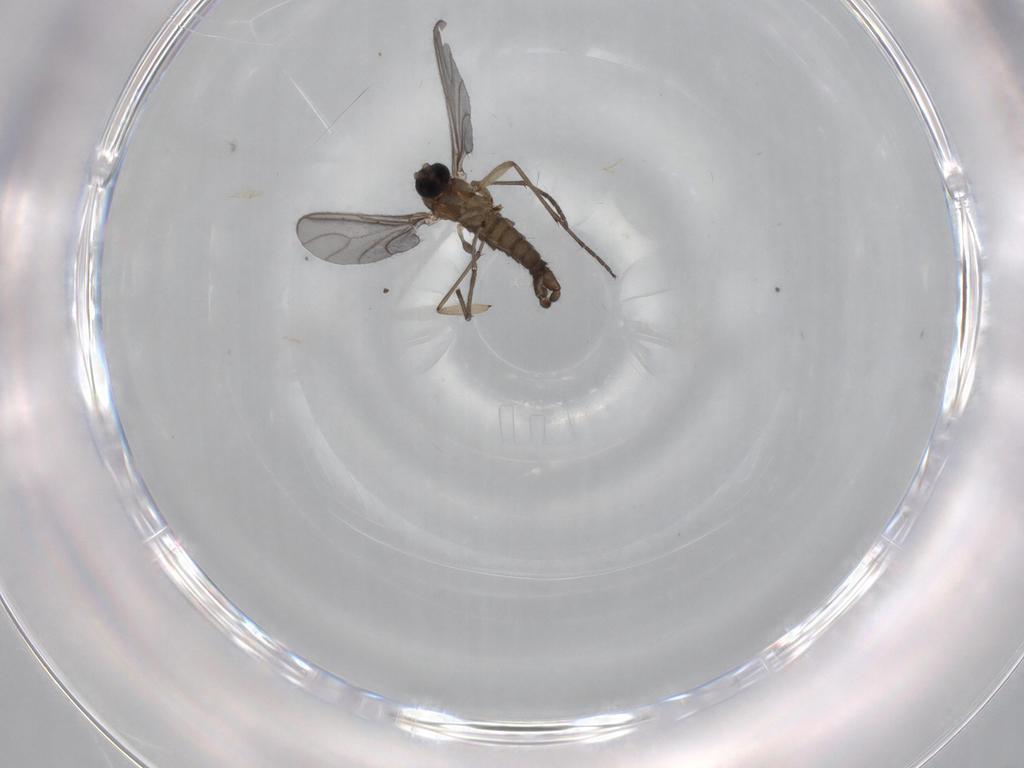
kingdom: Animalia
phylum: Arthropoda
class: Insecta
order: Diptera
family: Sciaridae
